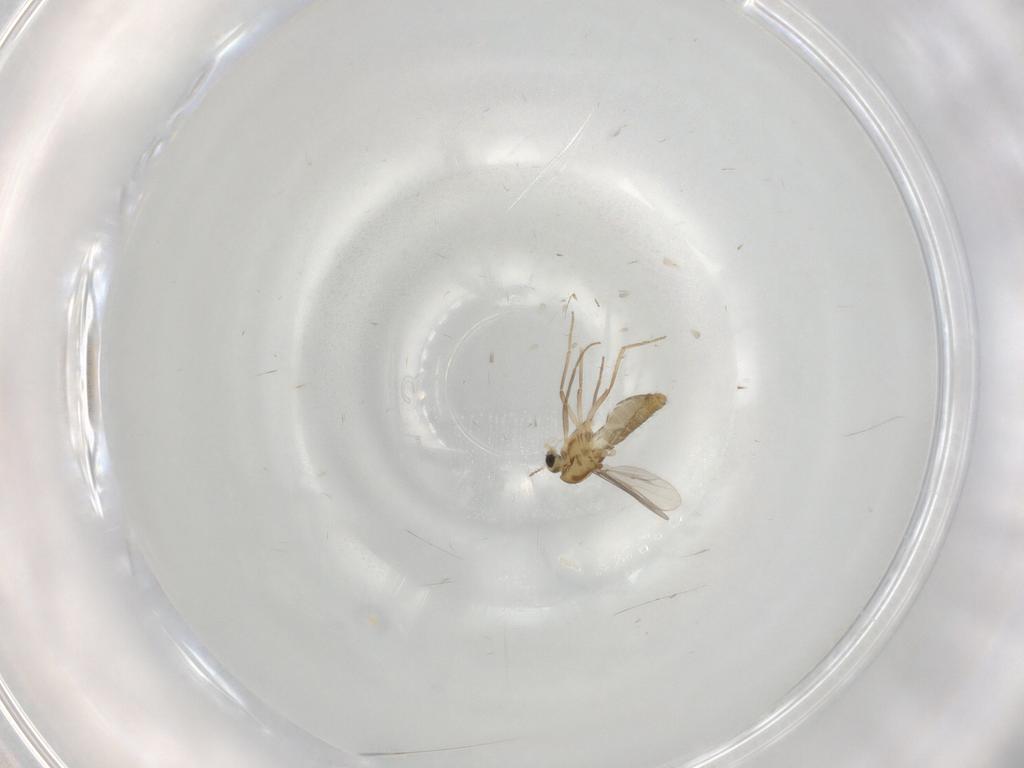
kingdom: Animalia
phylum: Arthropoda
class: Insecta
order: Diptera
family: Chironomidae
